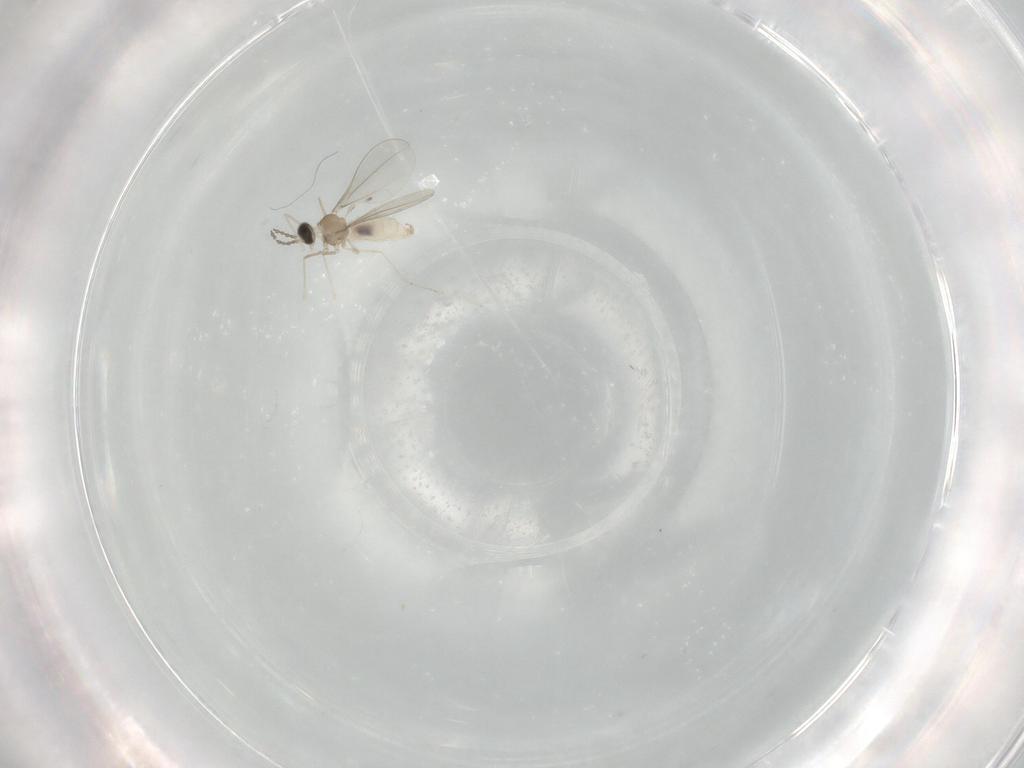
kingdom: Animalia
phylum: Arthropoda
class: Insecta
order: Diptera
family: Cecidomyiidae
